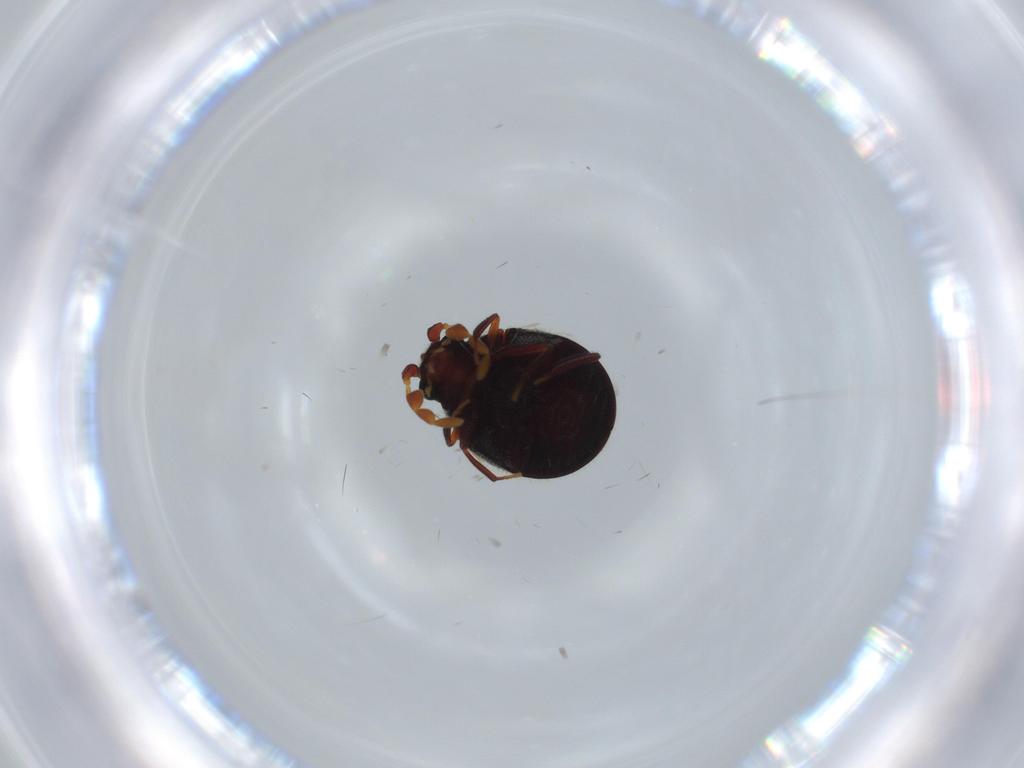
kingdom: Animalia
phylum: Arthropoda
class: Insecta
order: Coleoptera
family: Ptinidae
